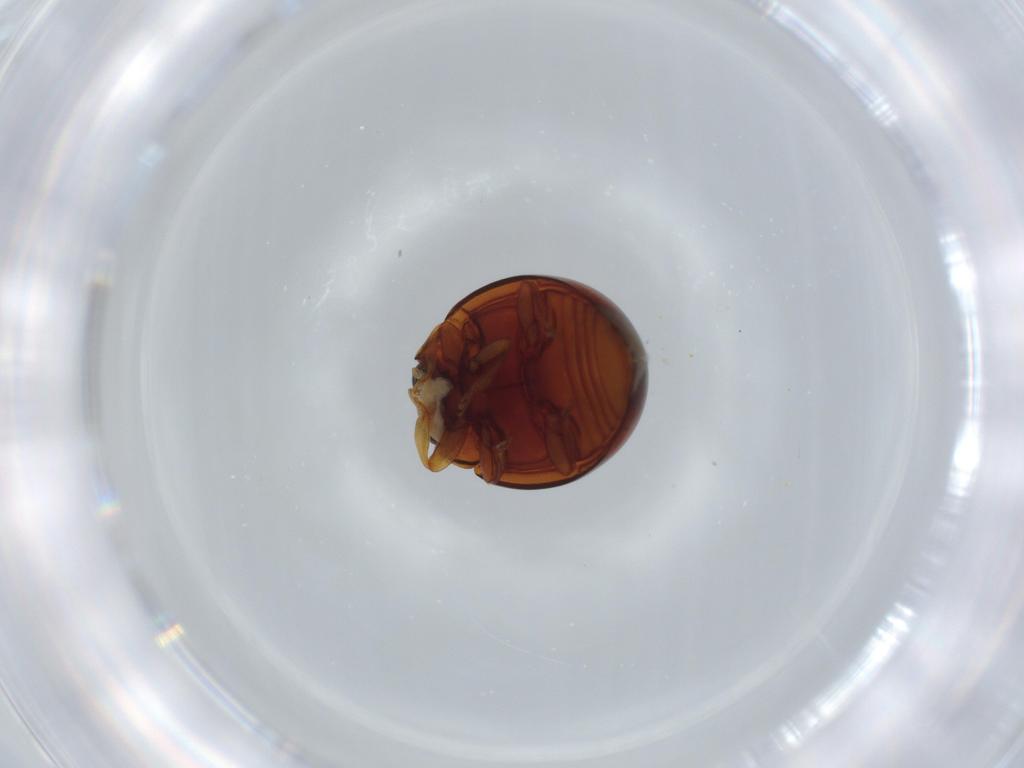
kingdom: Animalia
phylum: Arthropoda
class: Insecta
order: Coleoptera
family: Coccinellidae
